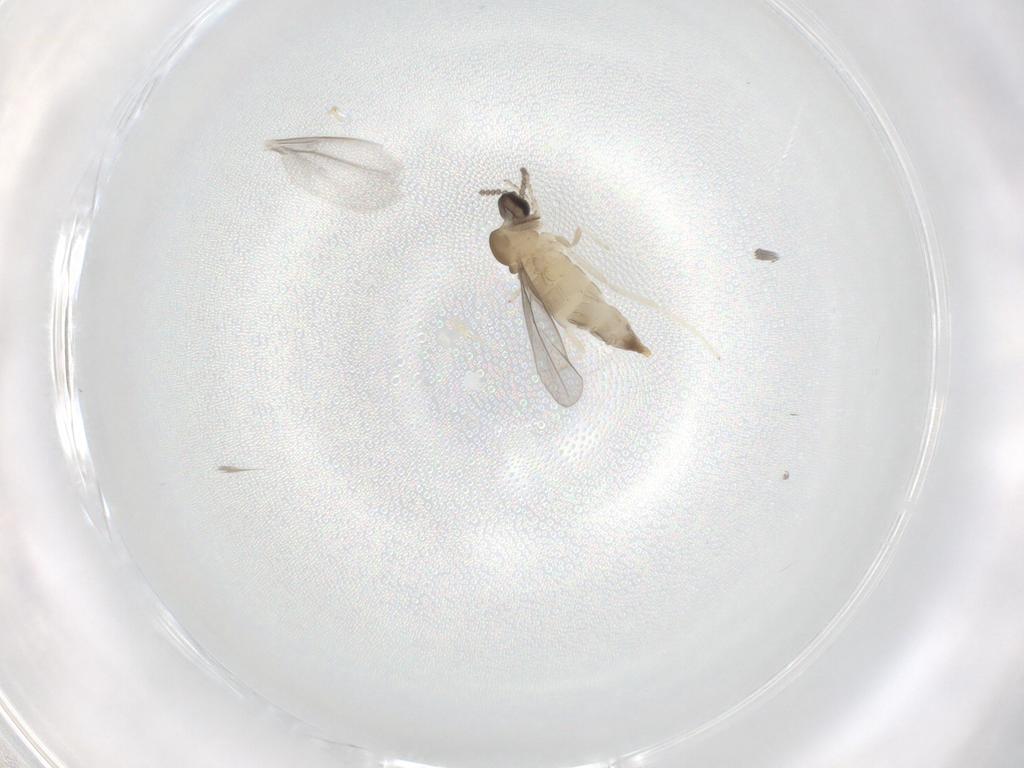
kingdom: Animalia
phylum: Arthropoda
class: Insecta
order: Diptera
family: Cecidomyiidae
